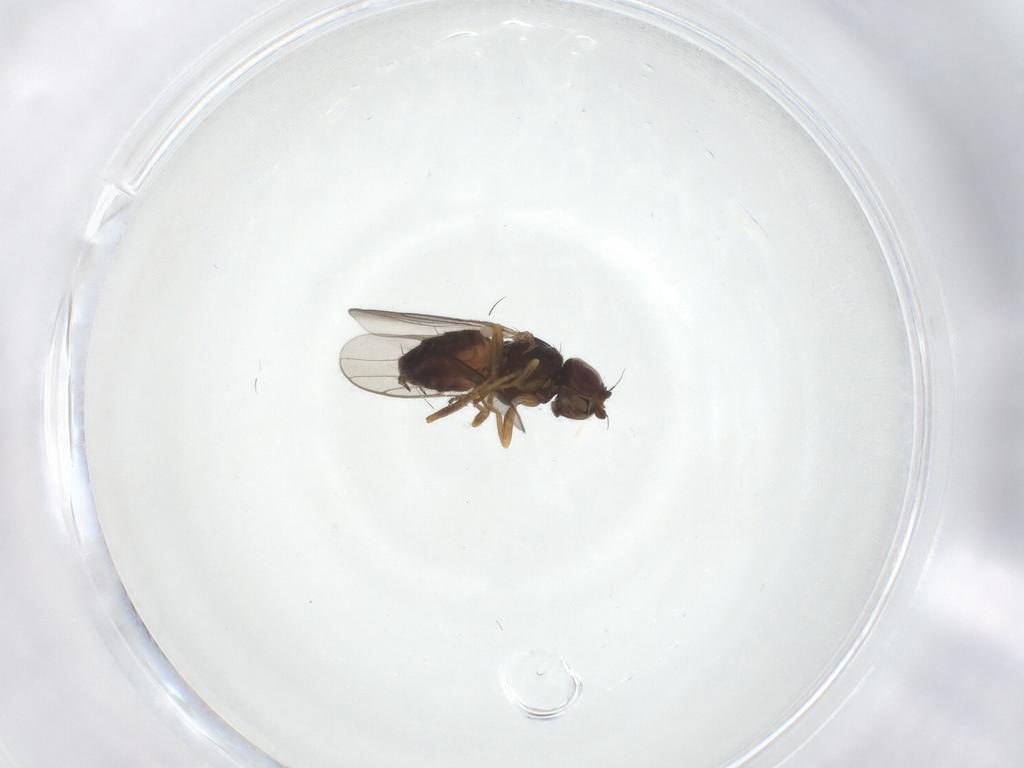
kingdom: Animalia
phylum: Arthropoda
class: Insecta
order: Diptera
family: Chloropidae
